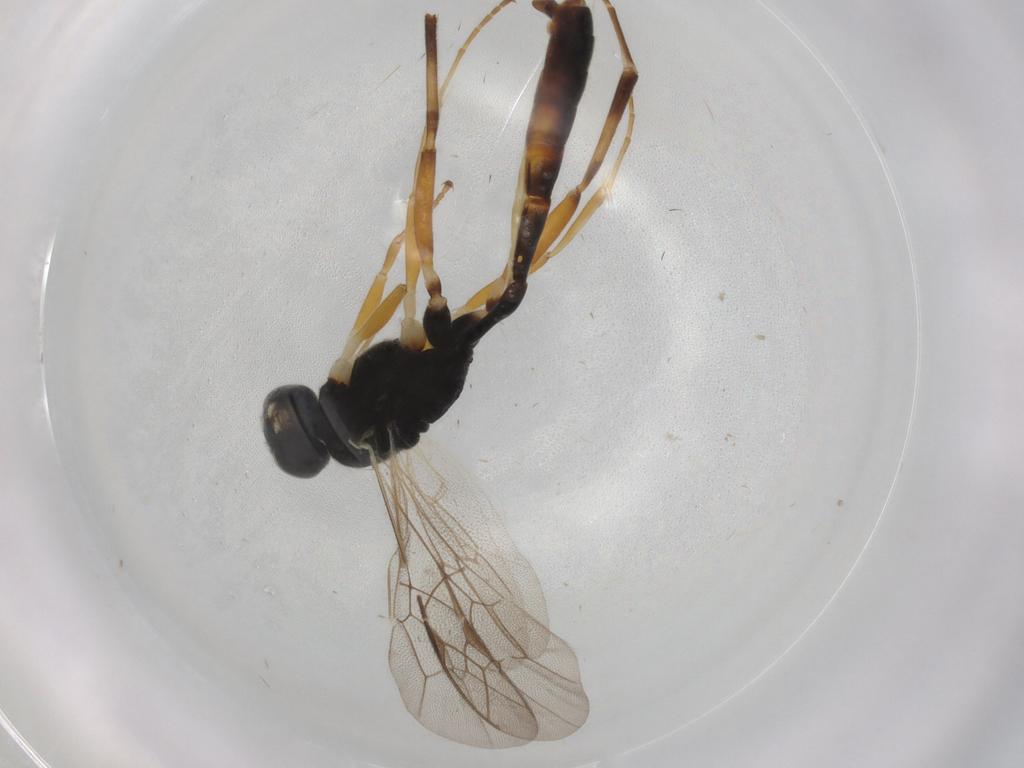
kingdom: Animalia
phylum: Arthropoda
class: Insecta
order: Hymenoptera
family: Ichneumonidae
